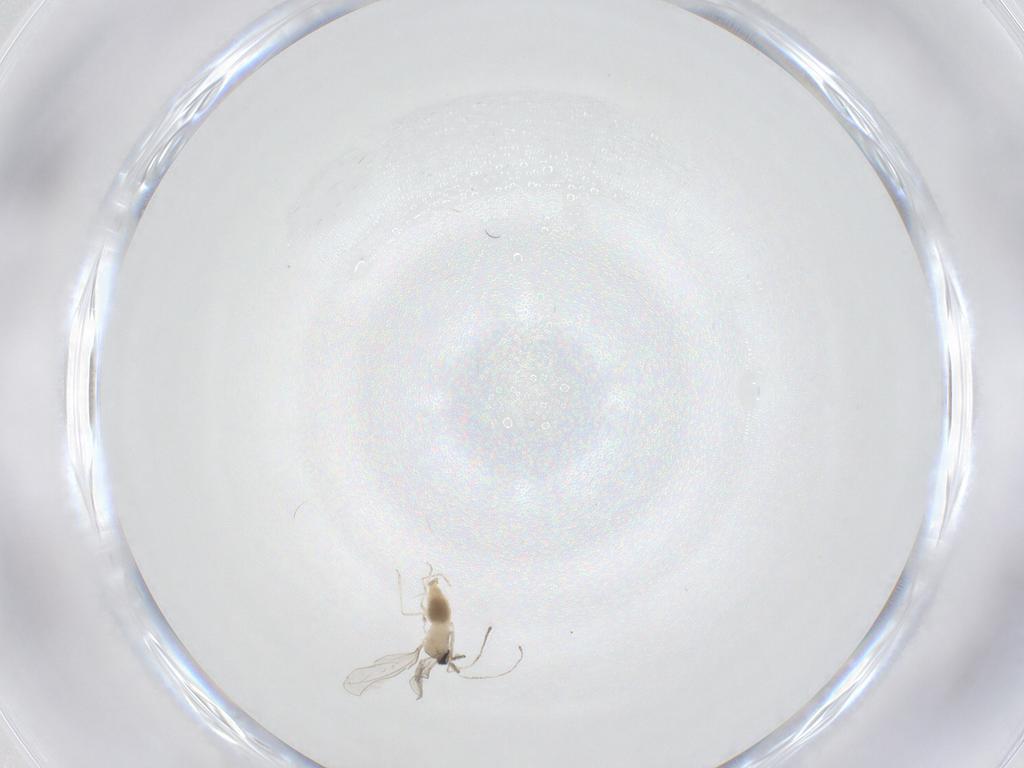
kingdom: Animalia
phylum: Arthropoda
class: Insecta
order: Diptera
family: Cecidomyiidae
